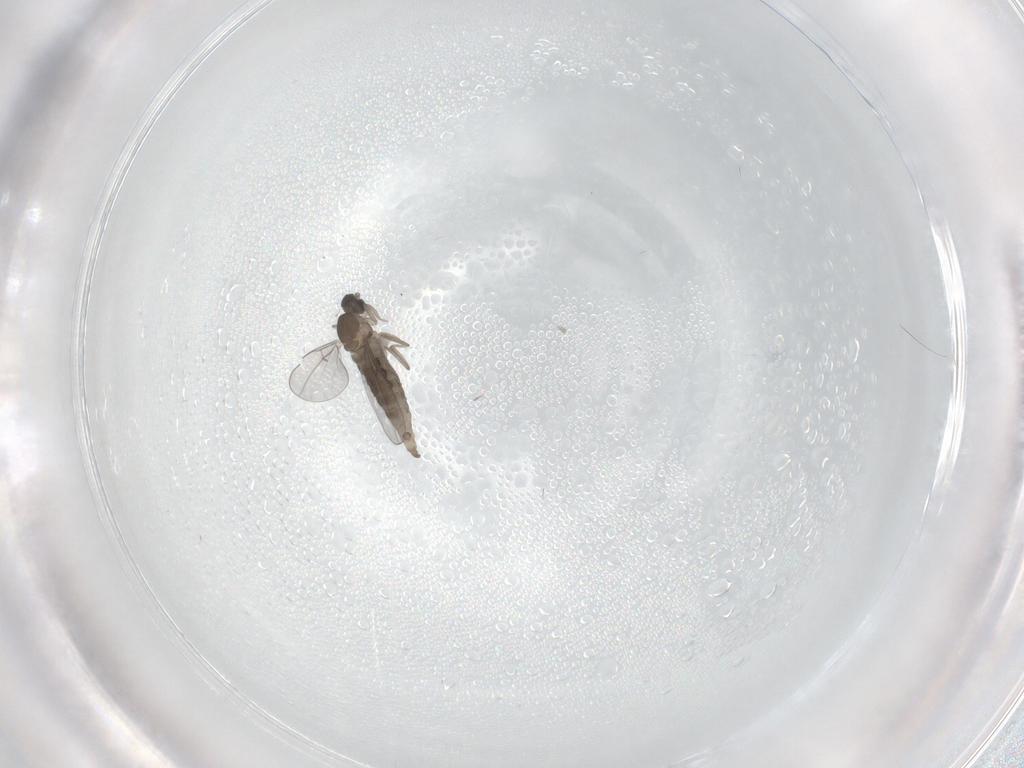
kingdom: Animalia
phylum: Arthropoda
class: Insecta
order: Diptera
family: Cecidomyiidae
